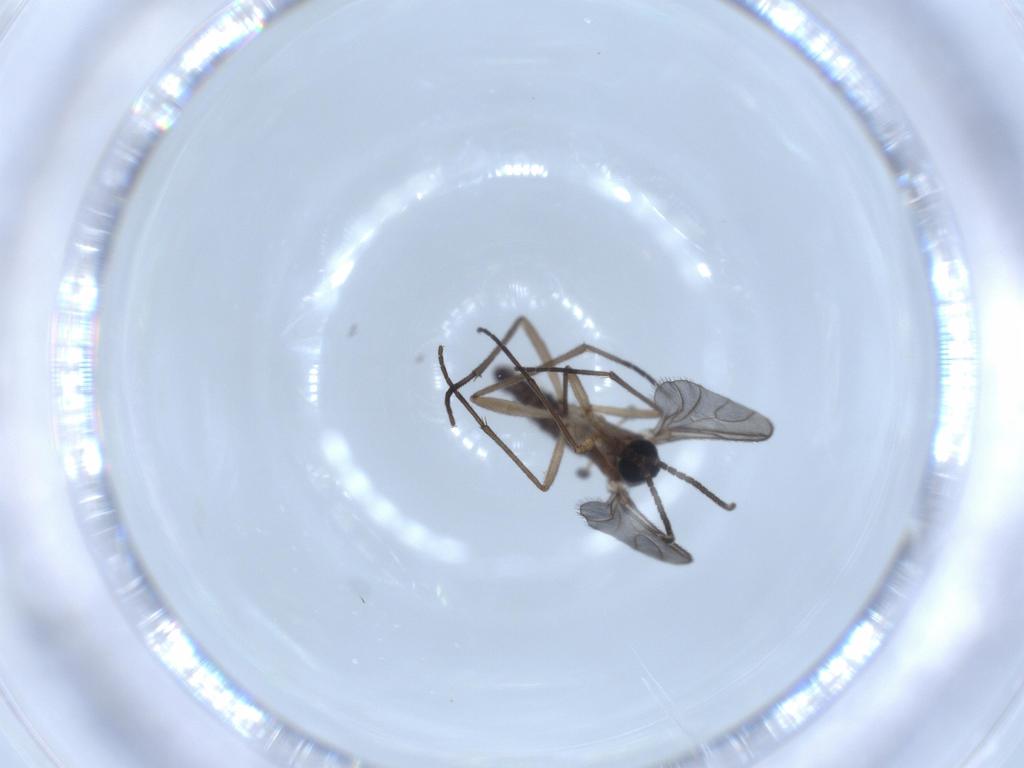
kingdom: Animalia
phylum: Arthropoda
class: Insecta
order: Diptera
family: Sciaridae
